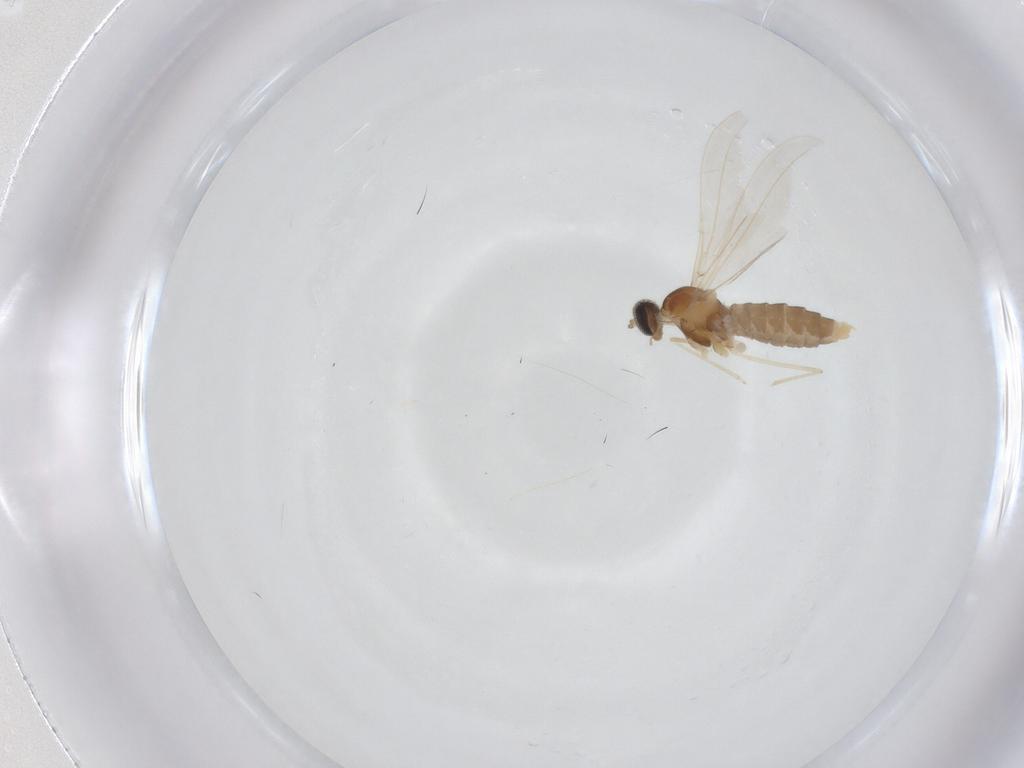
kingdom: Animalia
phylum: Arthropoda
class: Insecta
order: Diptera
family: Cecidomyiidae
